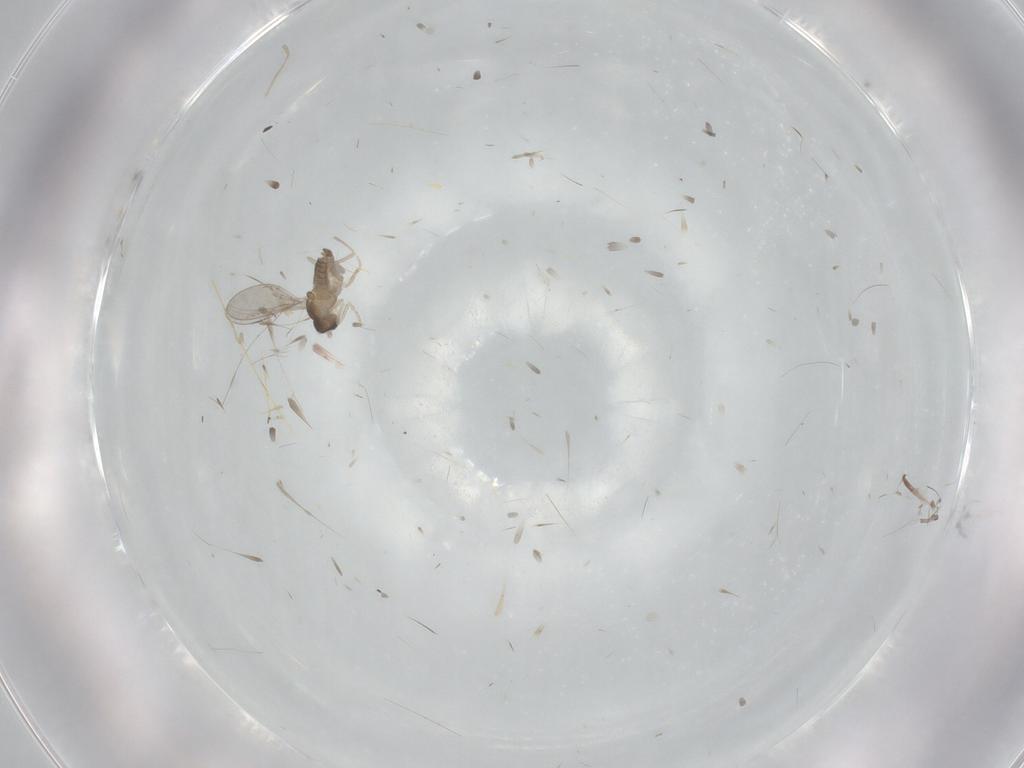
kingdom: Animalia
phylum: Arthropoda
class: Insecta
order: Diptera
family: Cecidomyiidae
